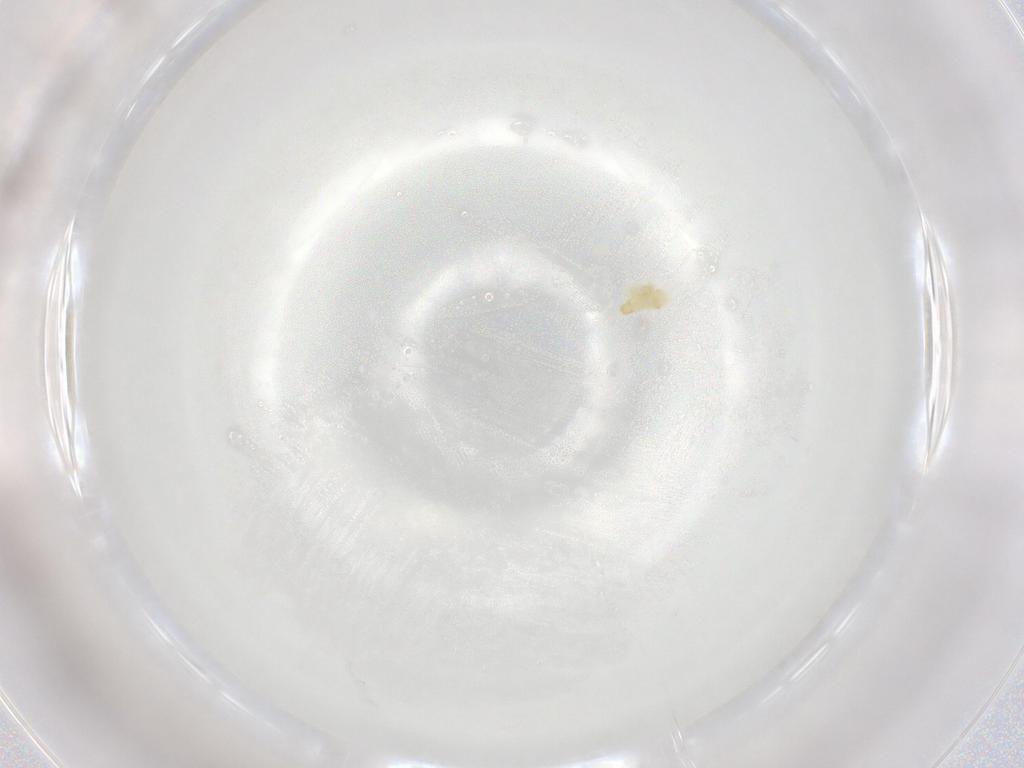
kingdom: Animalia
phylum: Arthropoda
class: Arachnida
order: Trombidiformes
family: Eupodidae
